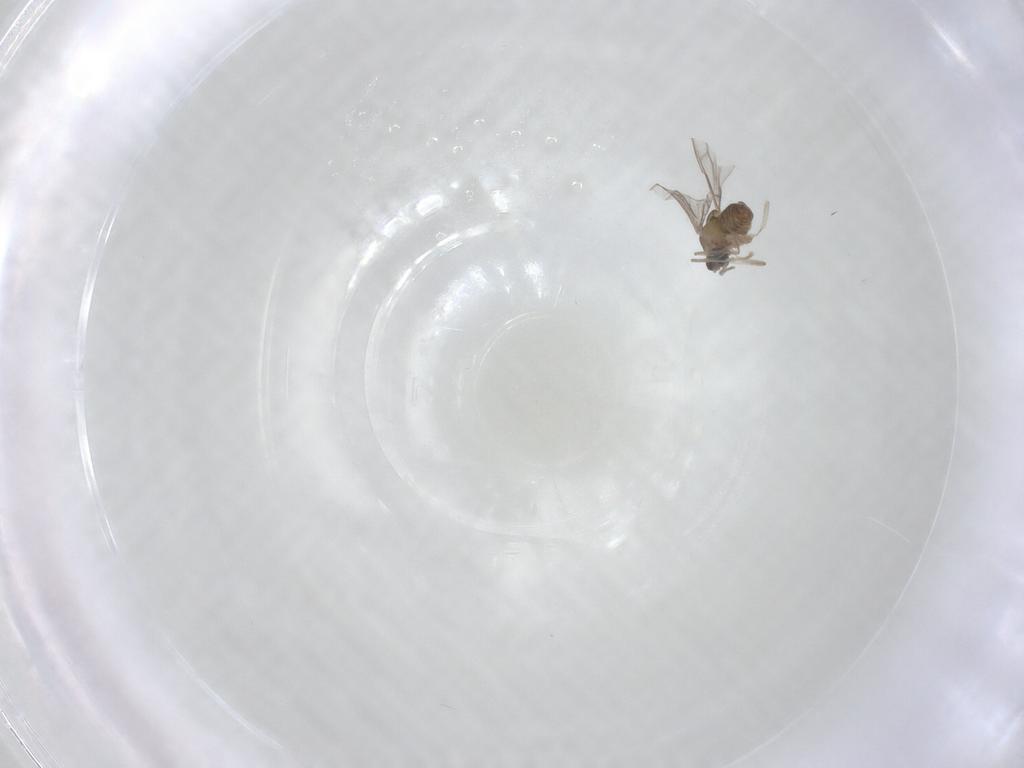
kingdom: Animalia
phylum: Arthropoda
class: Insecta
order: Diptera
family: Cecidomyiidae
